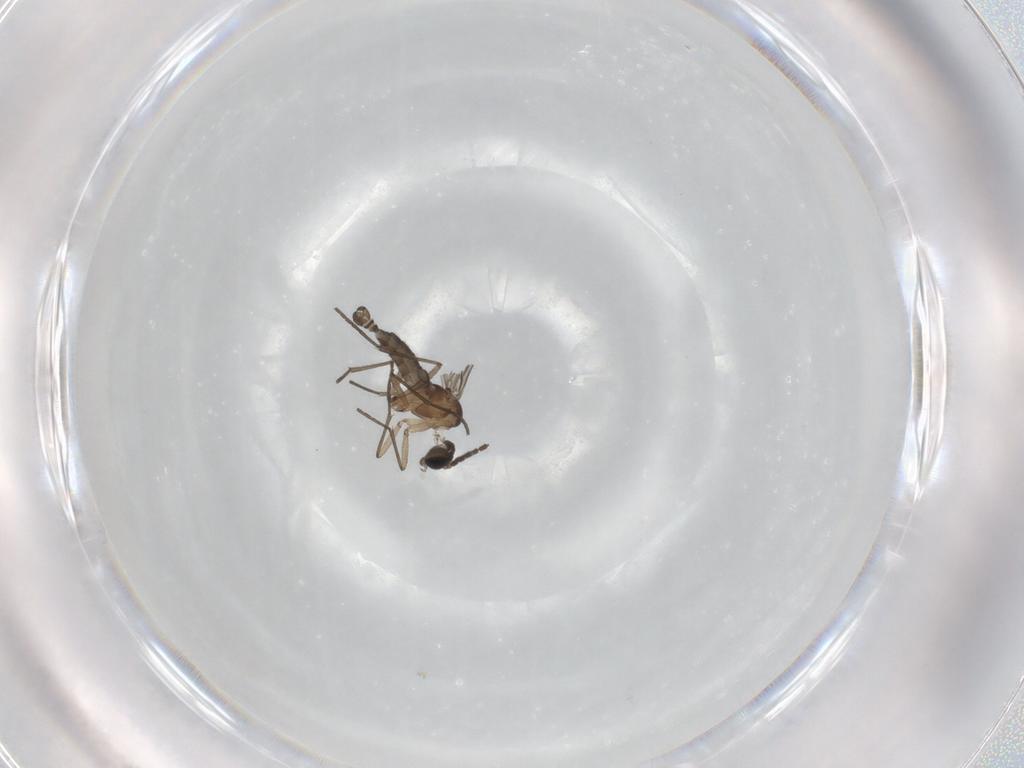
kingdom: Animalia
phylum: Arthropoda
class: Insecta
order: Diptera
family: Sciaridae
